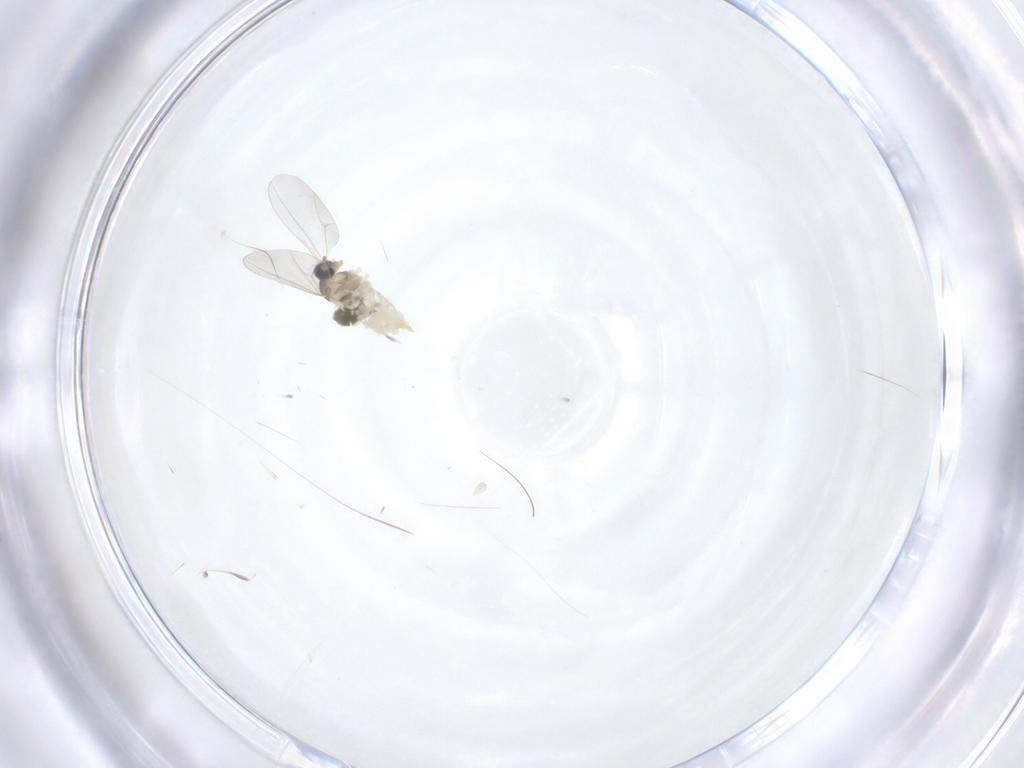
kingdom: Animalia
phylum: Arthropoda
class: Insecta
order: Diptera
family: Cecidomyiidae
